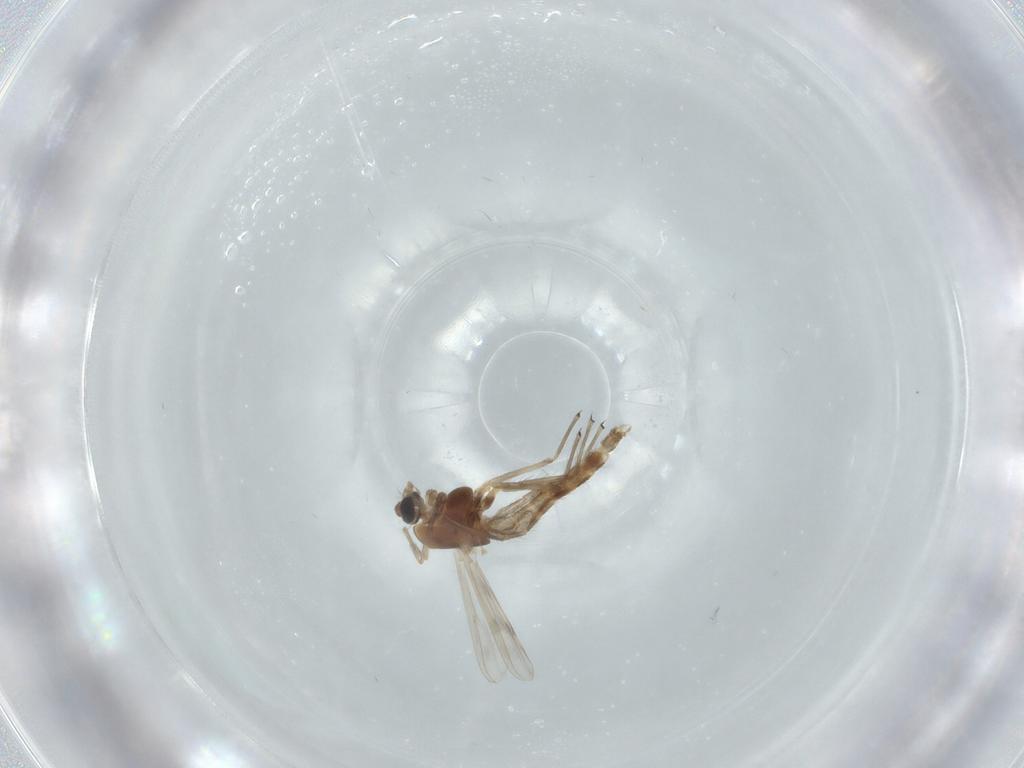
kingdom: Animalia
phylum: Arthropoda
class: Insecta
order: Diptera
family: Chironomidae
